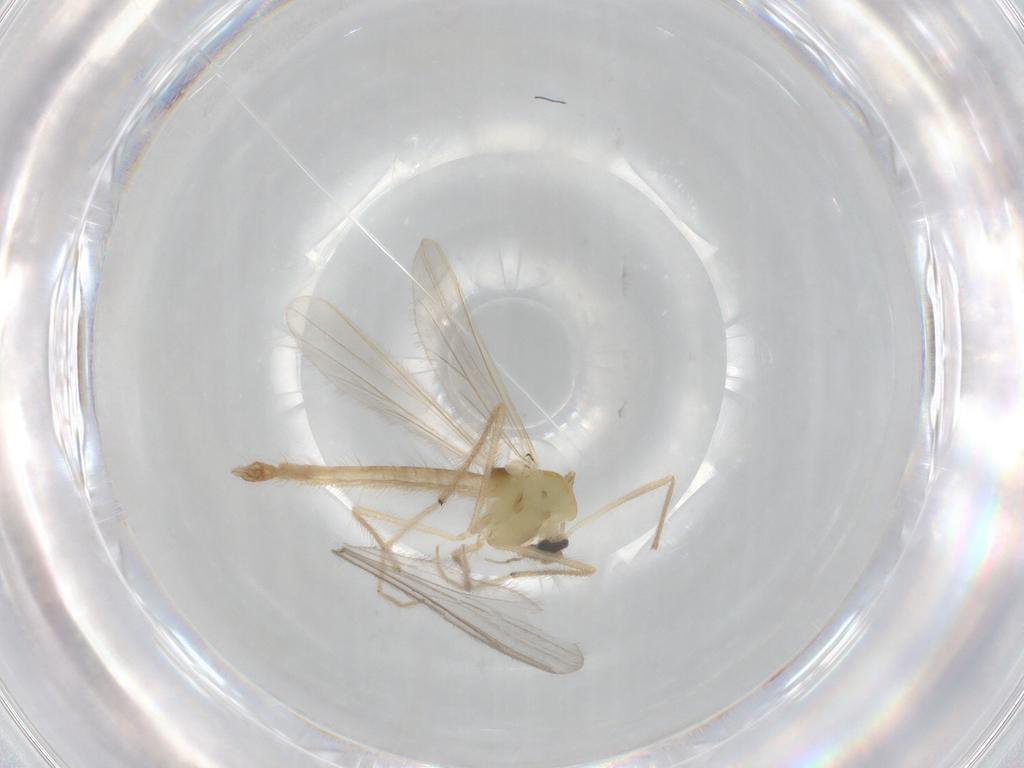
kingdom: Animalia
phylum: Arthropoda
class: Insecta
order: Diptera
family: Chironomidae
